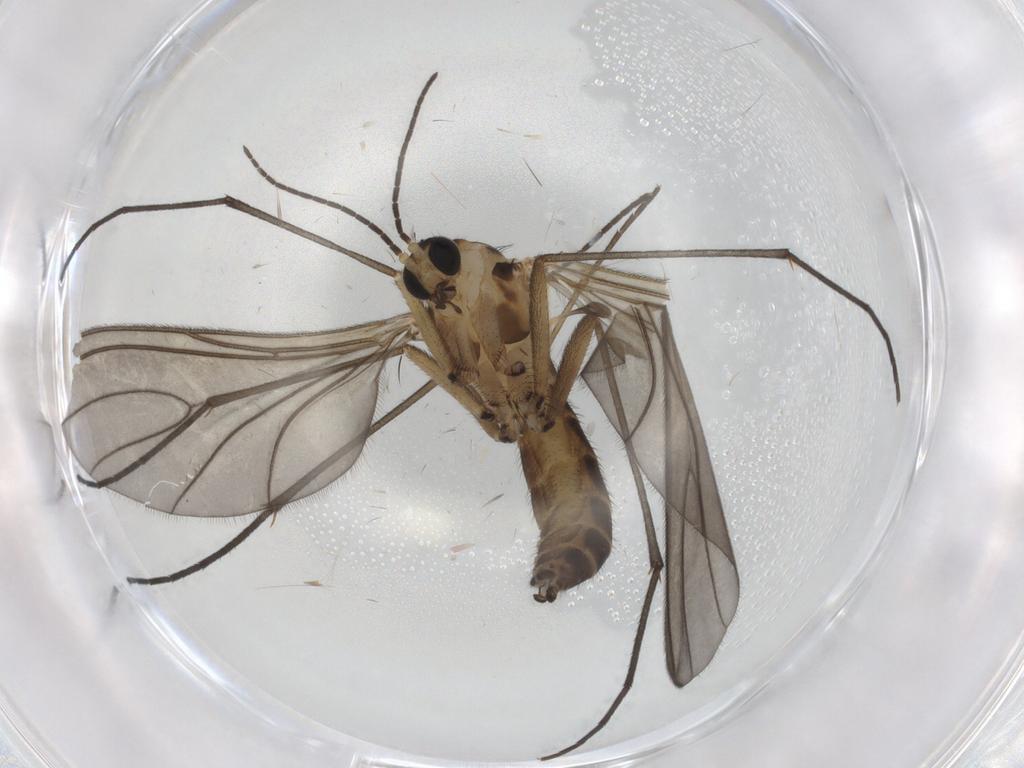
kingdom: Animalia
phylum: Arthropoda
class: Insecta
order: Diptera
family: Sciaridae
